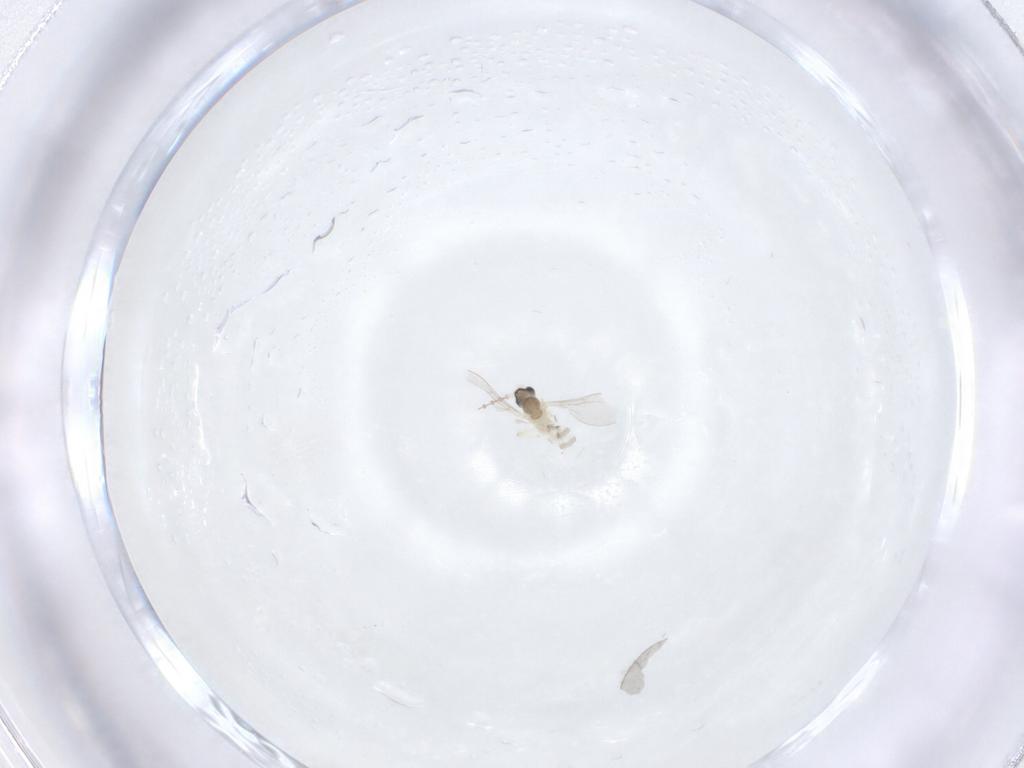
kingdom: Animalia
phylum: Arthropoda
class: Insecta
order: Diptera
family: Cecidomyiidae
